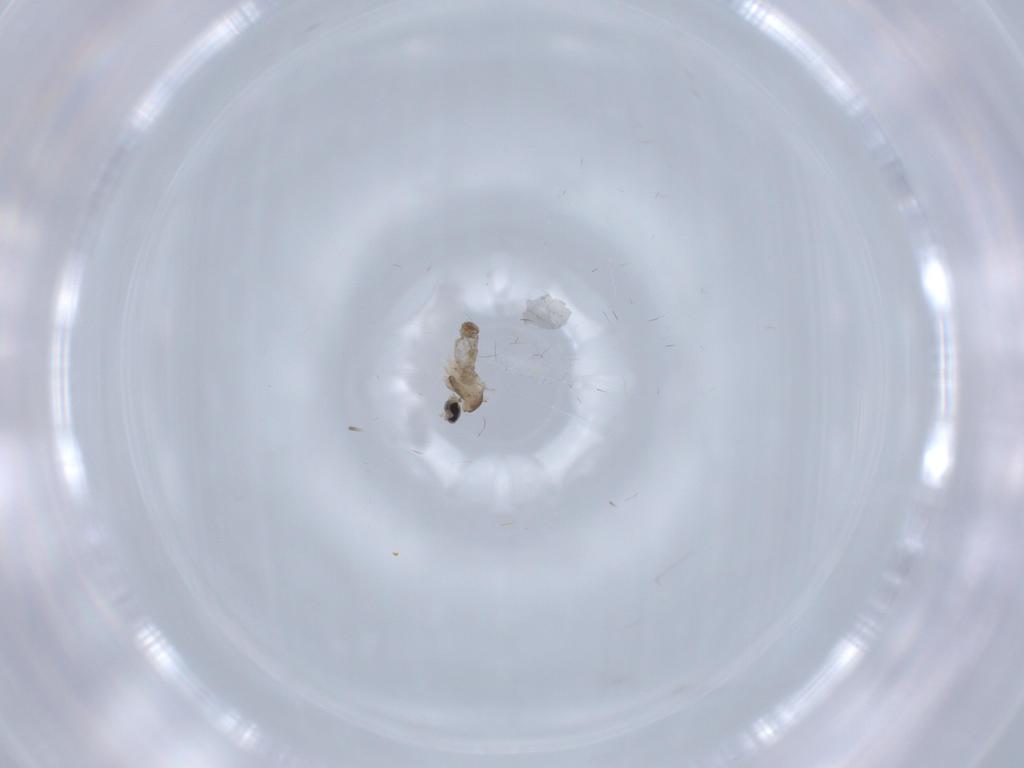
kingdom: Animalia
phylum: Arthropoda
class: Insecta
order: Diptera
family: Cecidomyiidae
